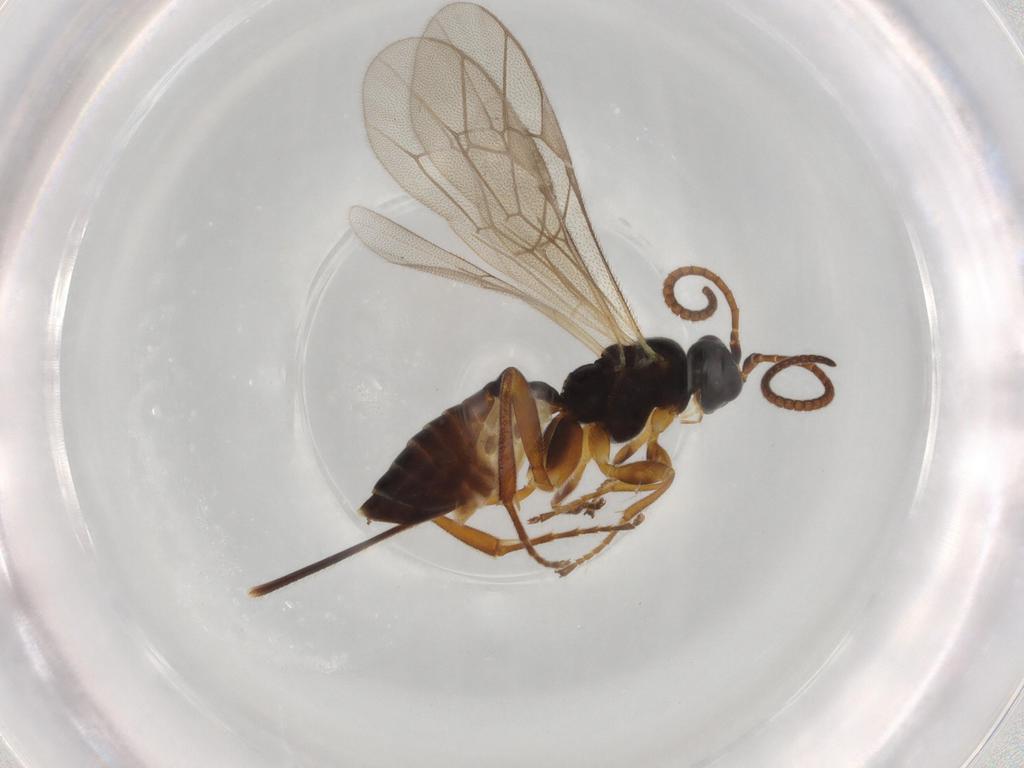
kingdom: Animalia
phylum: Arthropoda
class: Insecta
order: Hymenoptera
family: Ichneumonidae
